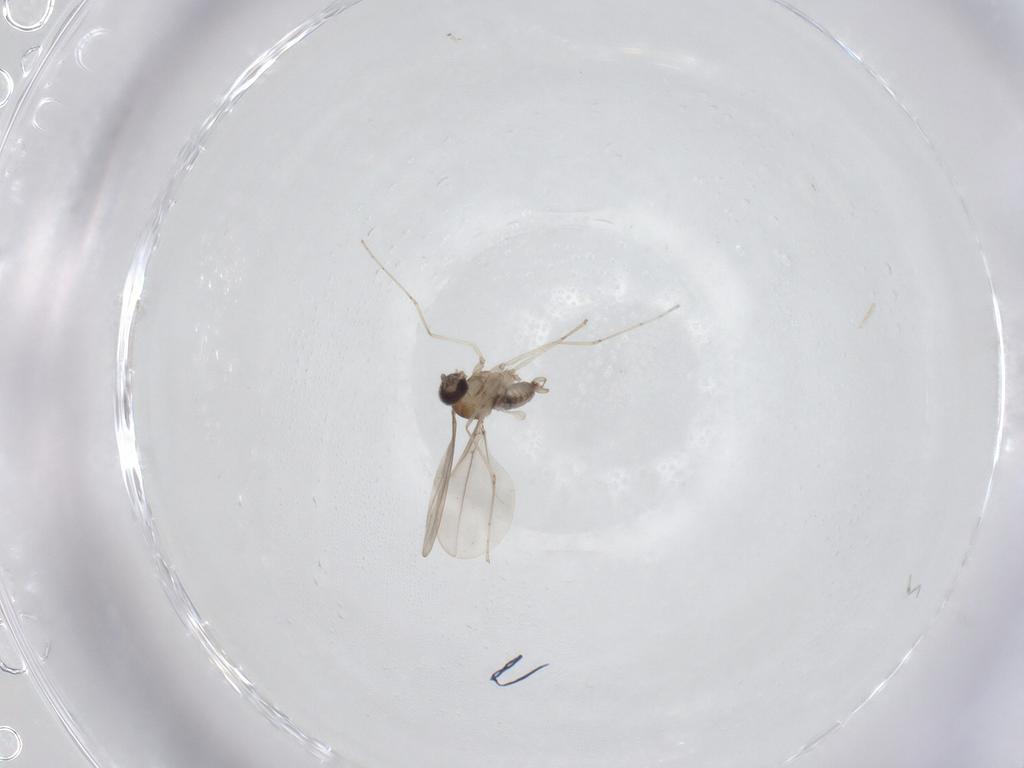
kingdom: Animalia
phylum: Arthropoda
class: Insecta
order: Diptera
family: Cecidomyiidae
